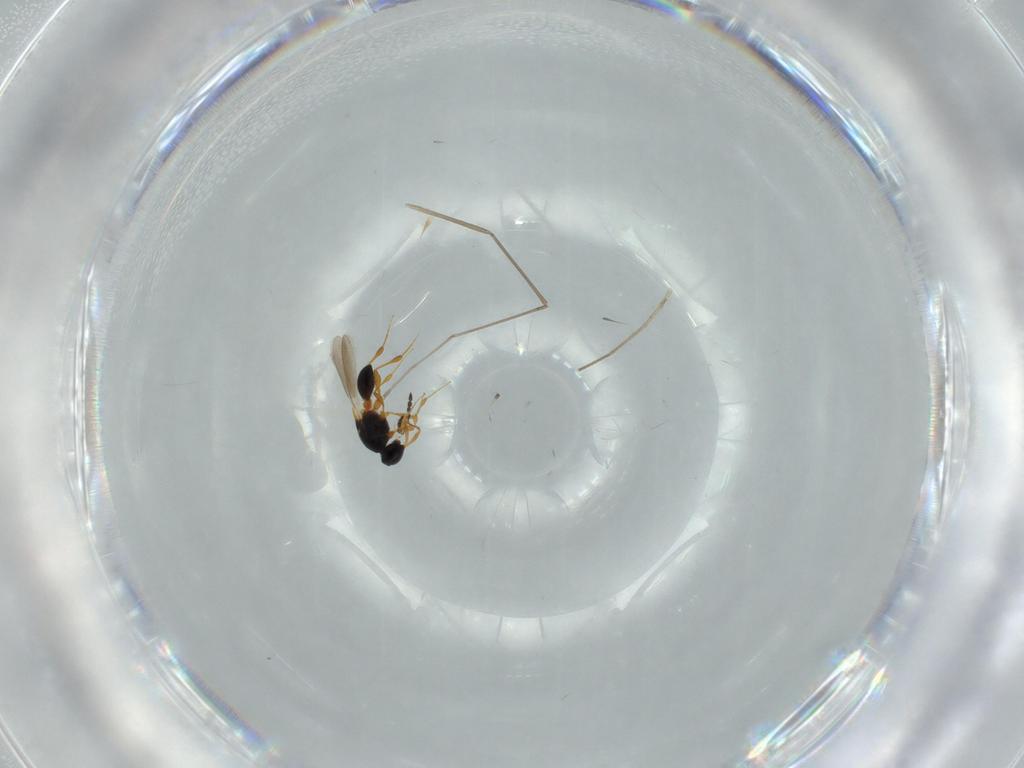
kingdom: Animalia
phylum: Arthropoda
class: Insecta
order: Hymenoptera
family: Platygastridae
